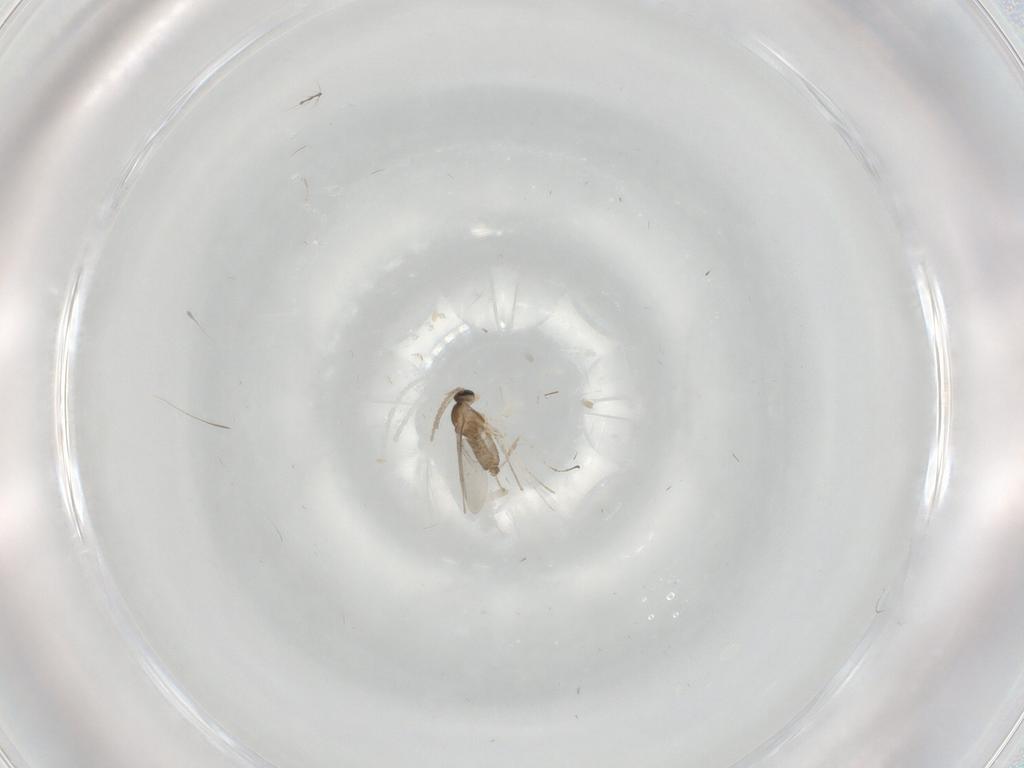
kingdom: Animalia
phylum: Arthropoda
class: Insecta
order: Diptera
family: Cecidomyiidae
